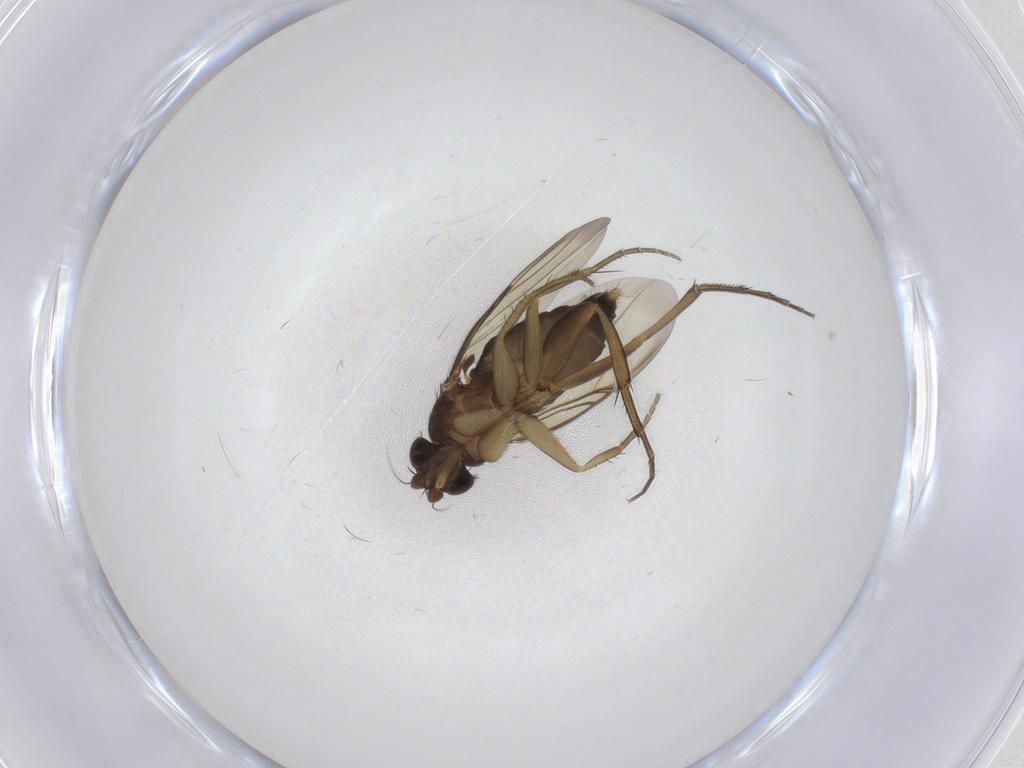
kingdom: Animalia
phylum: Arthropoda
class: Insecta
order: Diptera
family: Phoridae
